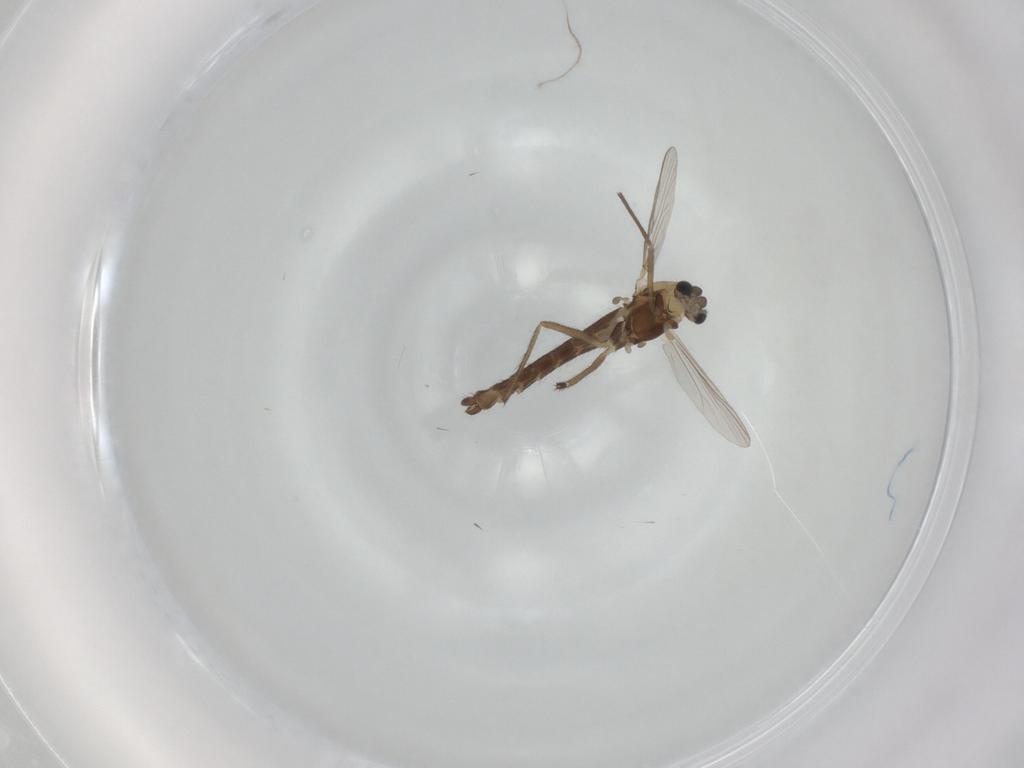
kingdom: Animalia
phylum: Arthropoda
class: Insecta
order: Diptera
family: Chironomidae
